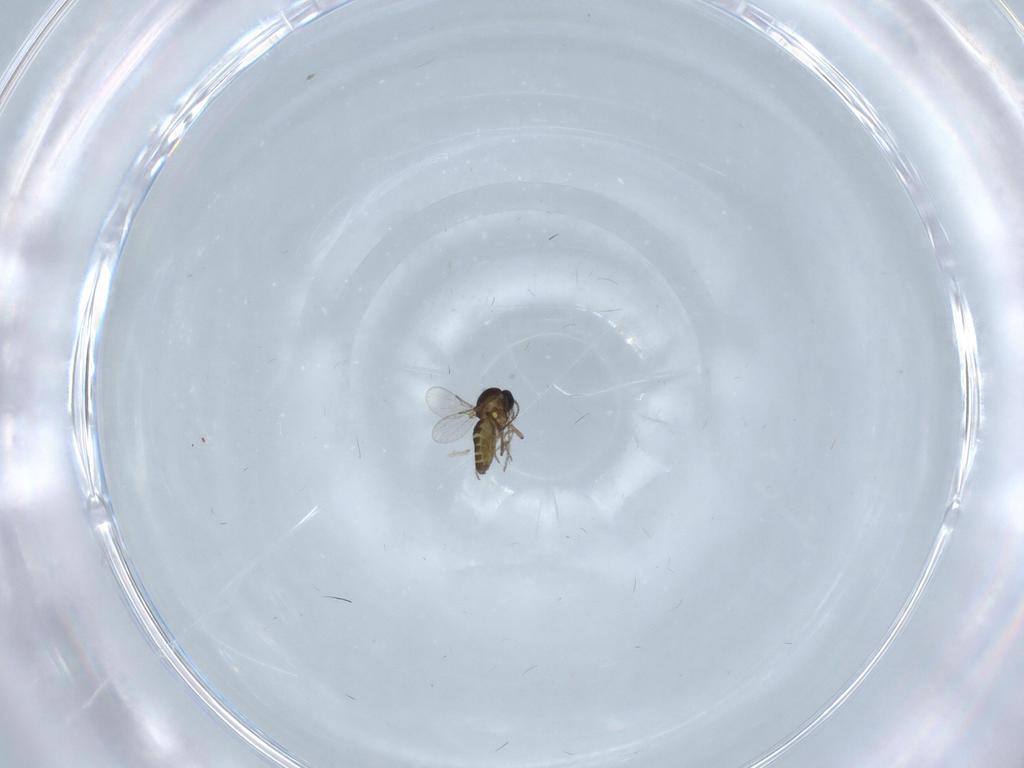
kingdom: Animalia
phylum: Arthropoda
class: Insecta
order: Diptera
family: Ceratopogonidae
